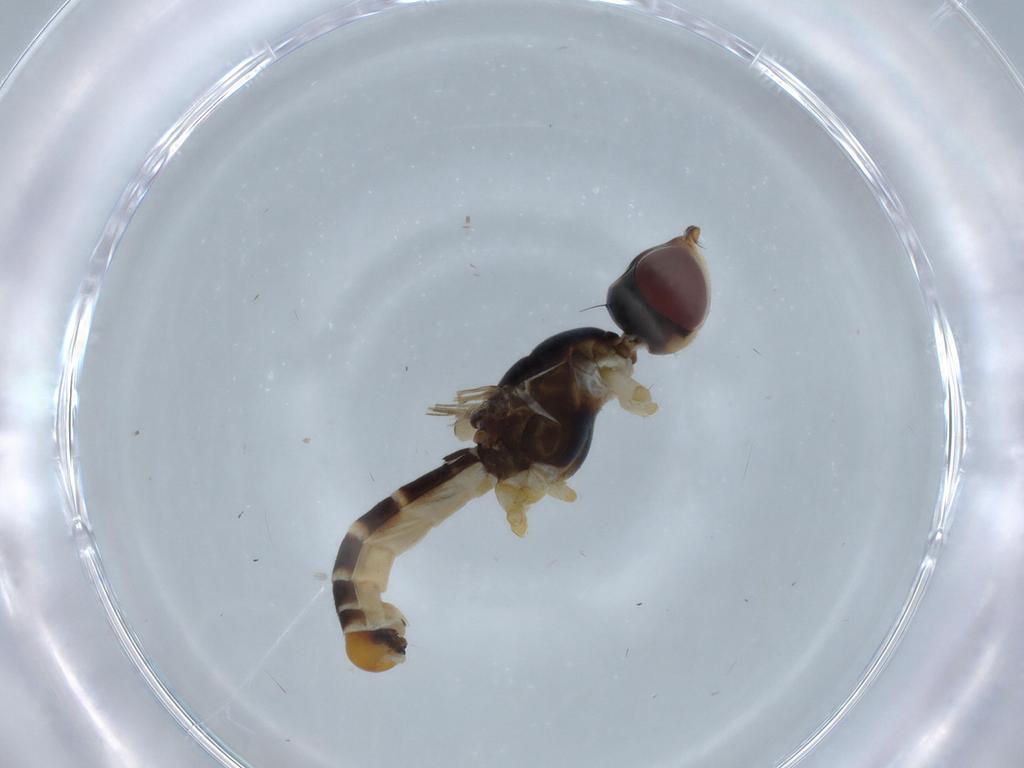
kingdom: Animalia
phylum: Arthropoda
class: Insecta
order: Diptera
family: Micropezidae
